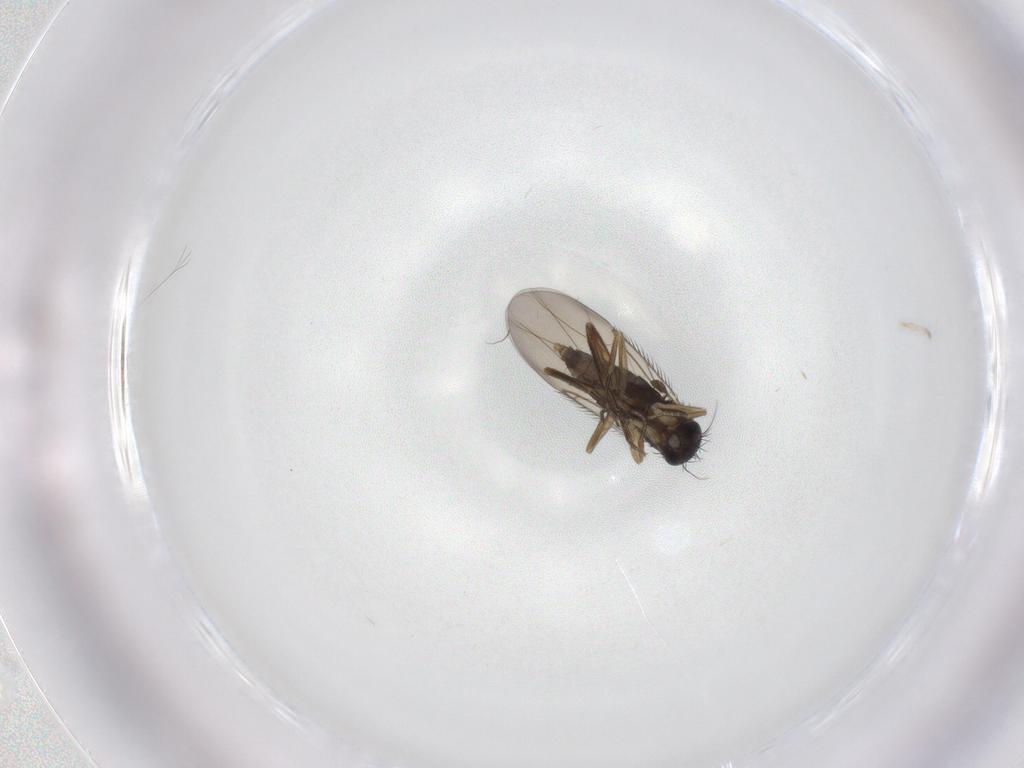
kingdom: Animalia
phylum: Arthropoda
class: Insecta
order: Diptera
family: Phoridae
